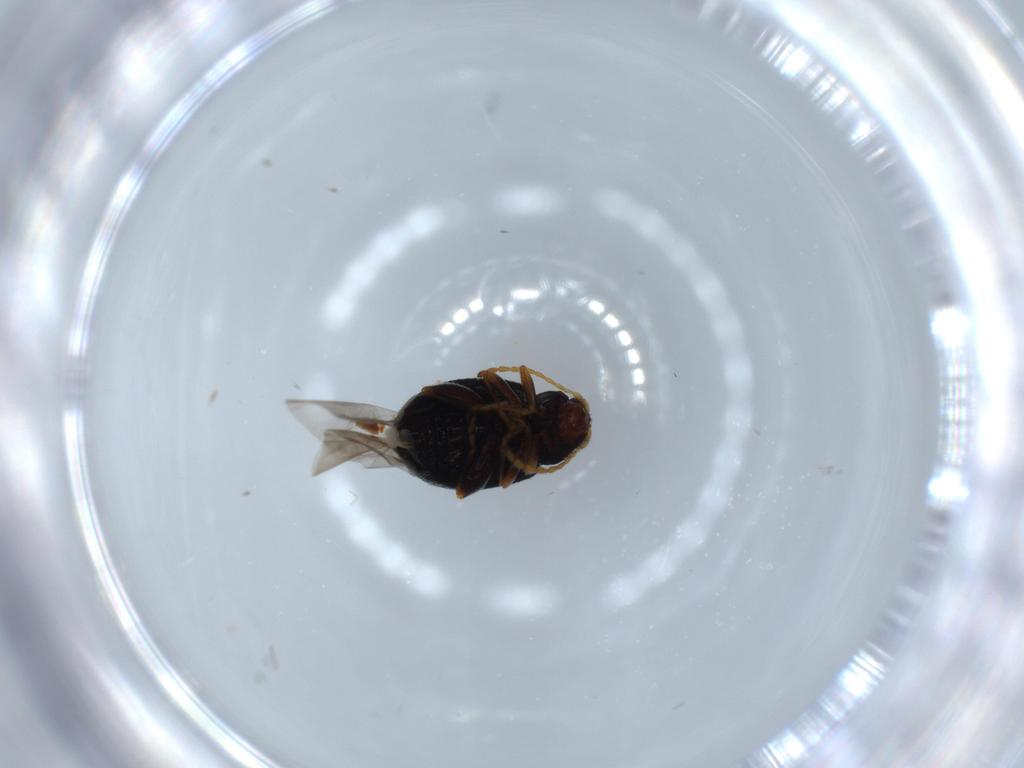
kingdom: Animalia
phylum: Arthropoda
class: Insecta
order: Coleoptera
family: Chrysomelidae
